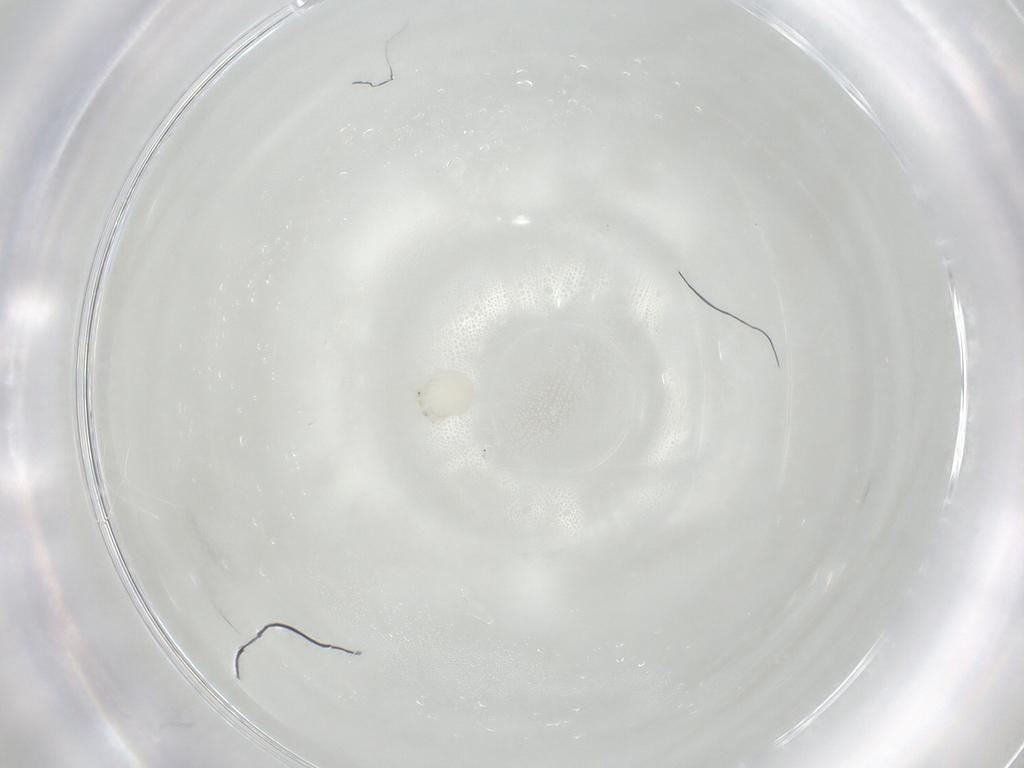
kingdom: Animalia
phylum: Arthropoda
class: Arachnida
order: Trombidiformes
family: Arrenuridae
